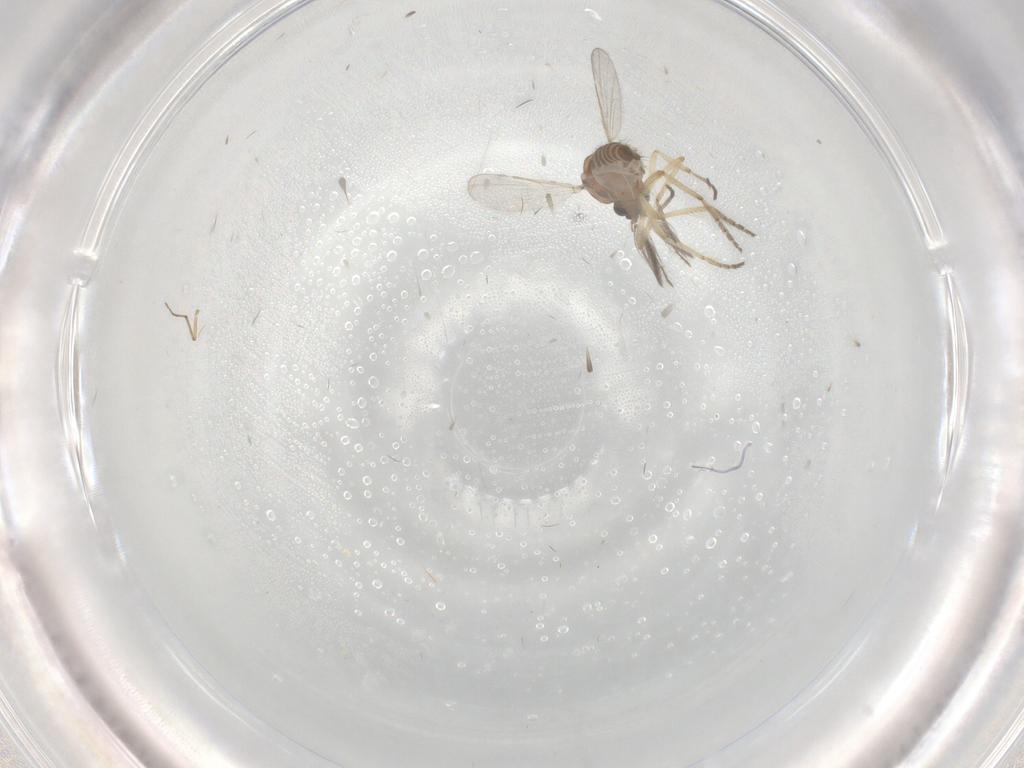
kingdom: Animalia
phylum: Arthropoda
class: Insecta
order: Diptera
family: Ceratopogonidae
